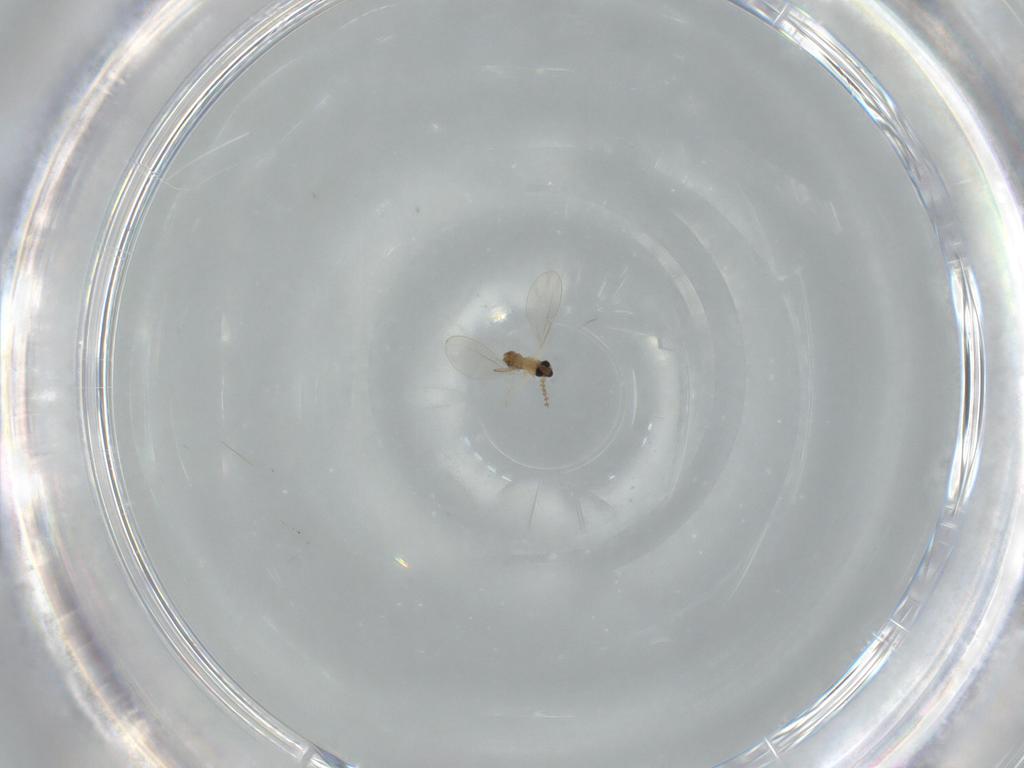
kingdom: Animalia
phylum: Arthropoda
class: Insecta
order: Diptera
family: Cecidomyiidae
